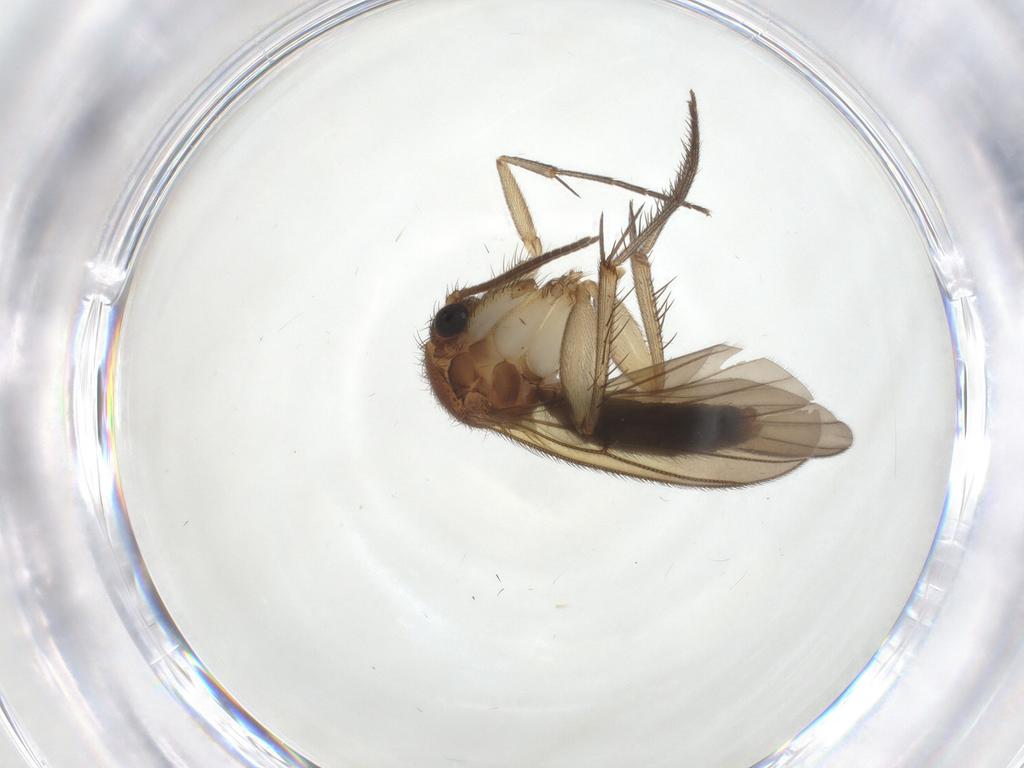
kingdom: Animalia
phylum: Arthropoda
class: Insecta
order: Diptera
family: Mycetophilidae
